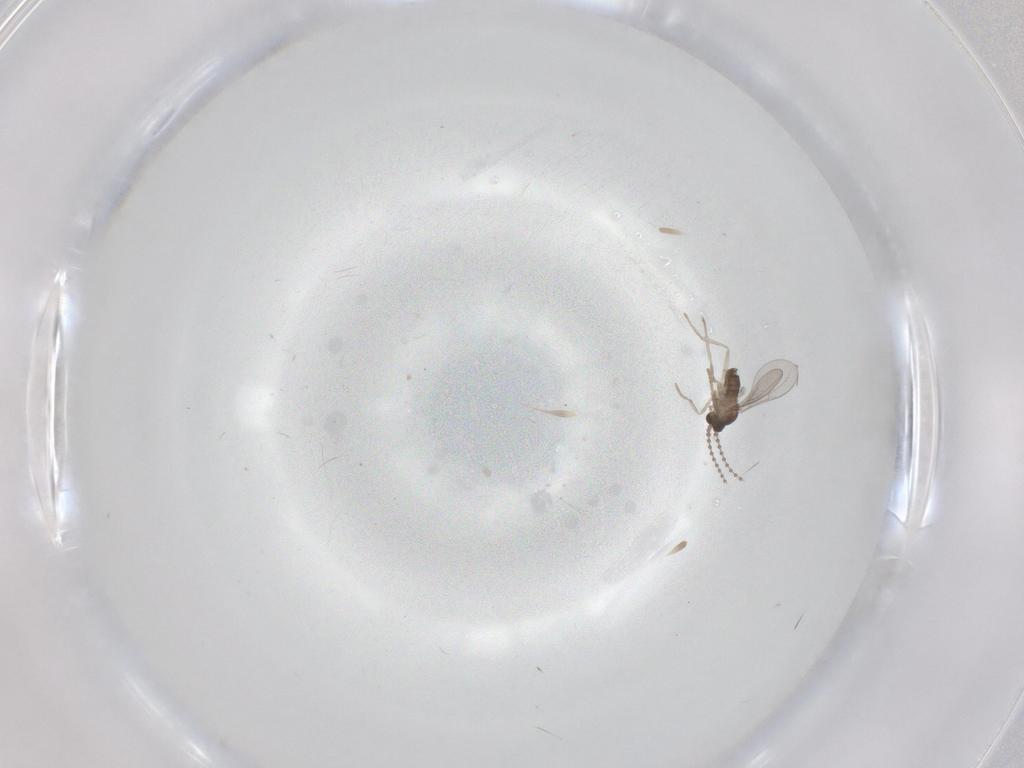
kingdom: Animalia
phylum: Arthropoda
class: Insecta
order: Diptera
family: Cecidomyiidae
